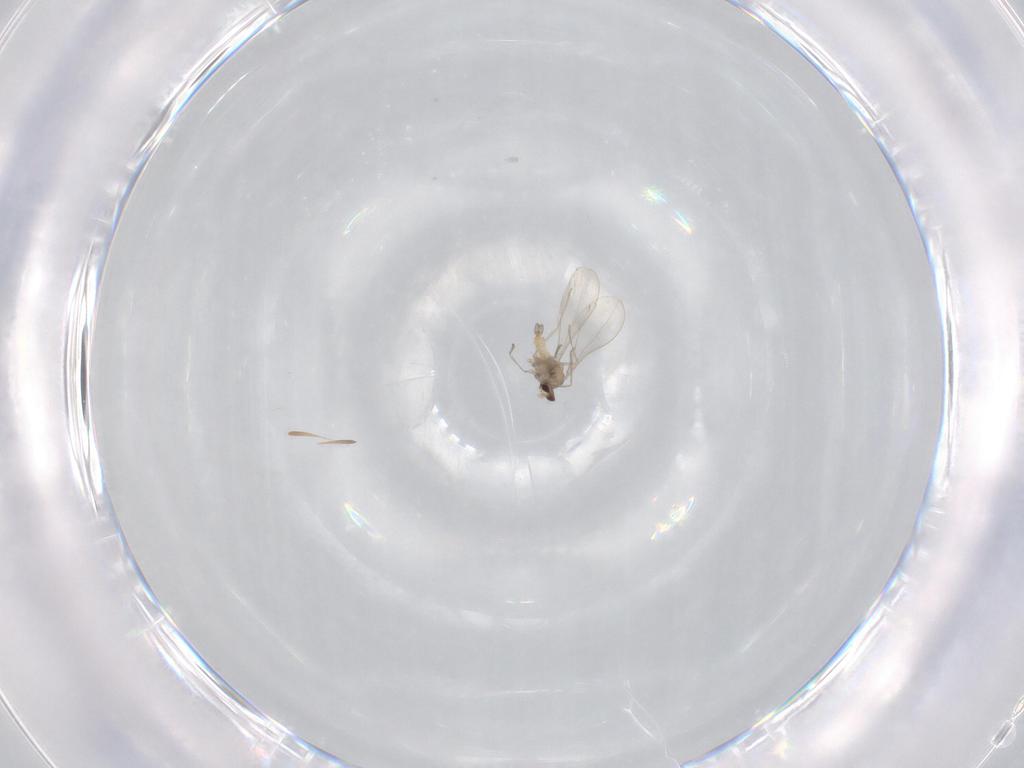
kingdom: Animalia
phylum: Arthropoda
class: Insecta
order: Diptera
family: Cecidomyiidae
